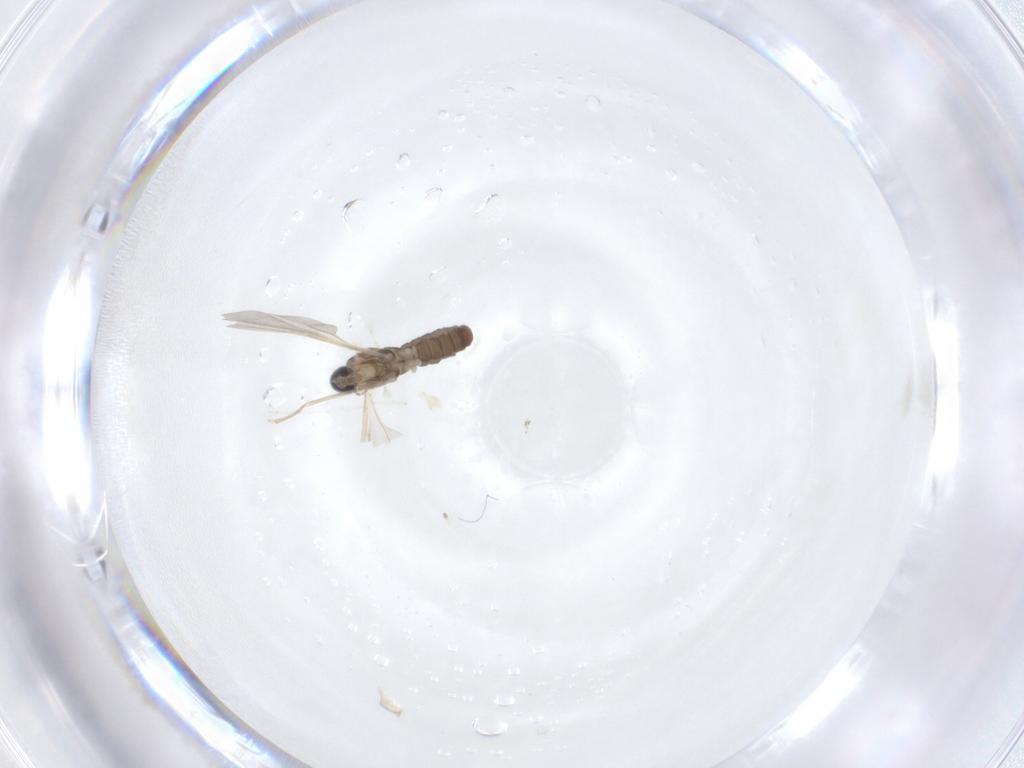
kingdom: Animalia
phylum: Arthropoda
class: Insecta
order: Diptera
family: Cecidomyiidae
